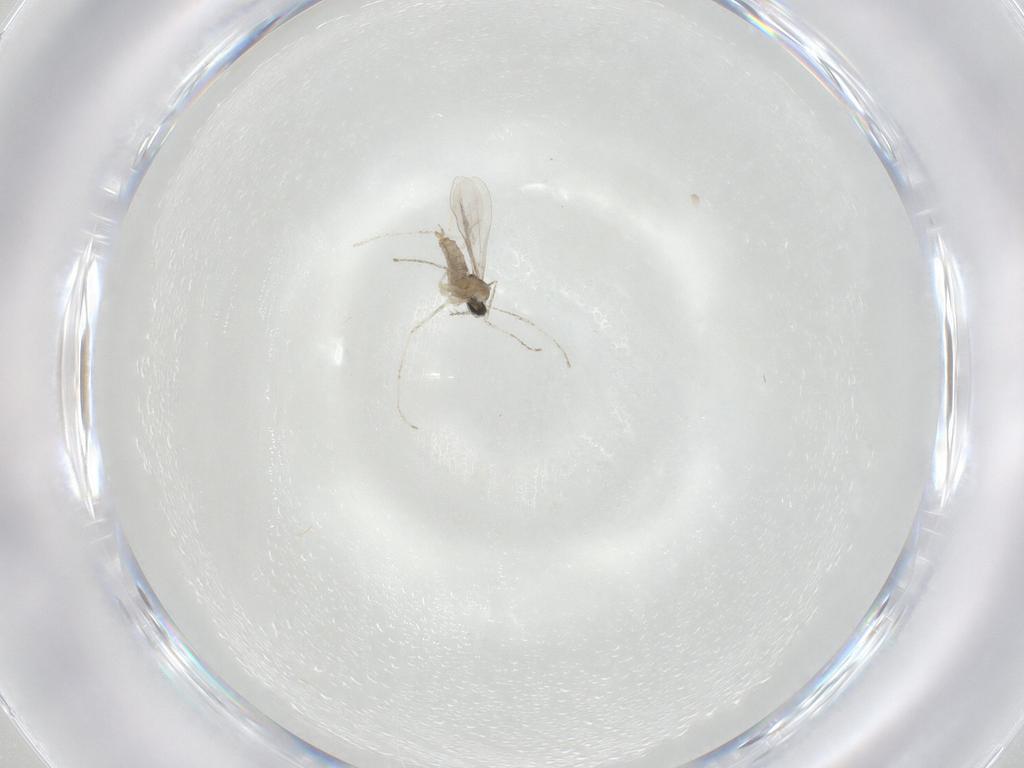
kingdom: Animalia
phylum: Arthropoda
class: Insecta
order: Diptera
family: Cecidomyiidae
